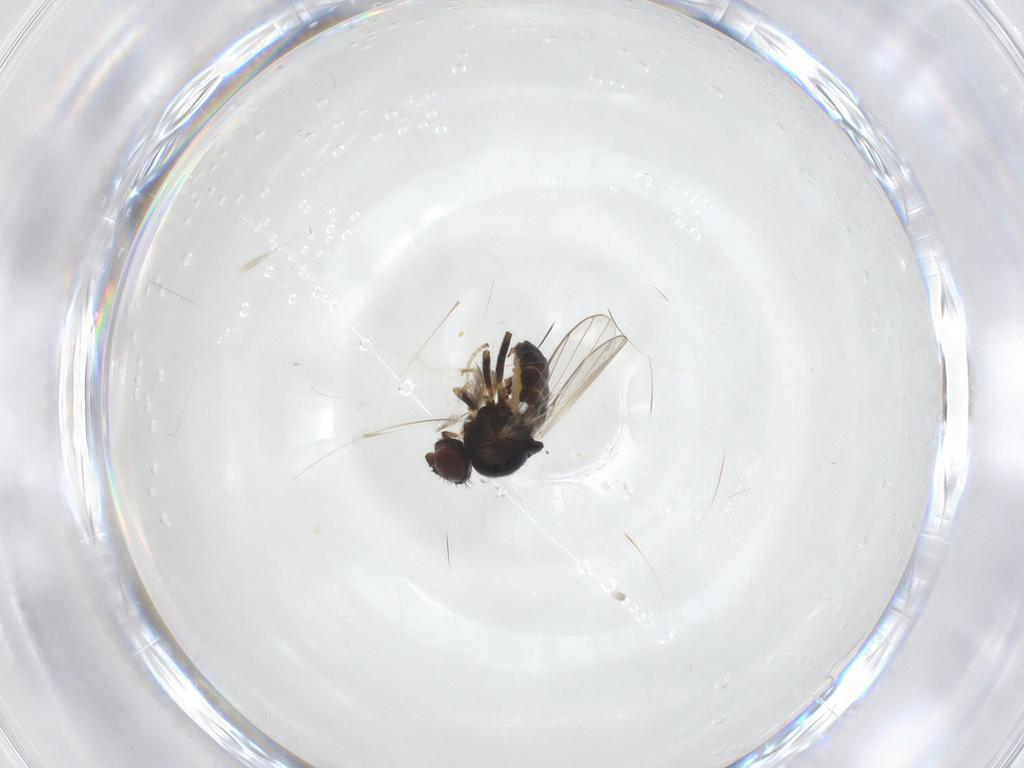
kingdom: Animalia
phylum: Arthropoda
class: Insecta
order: Diptera
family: Chloropidae
